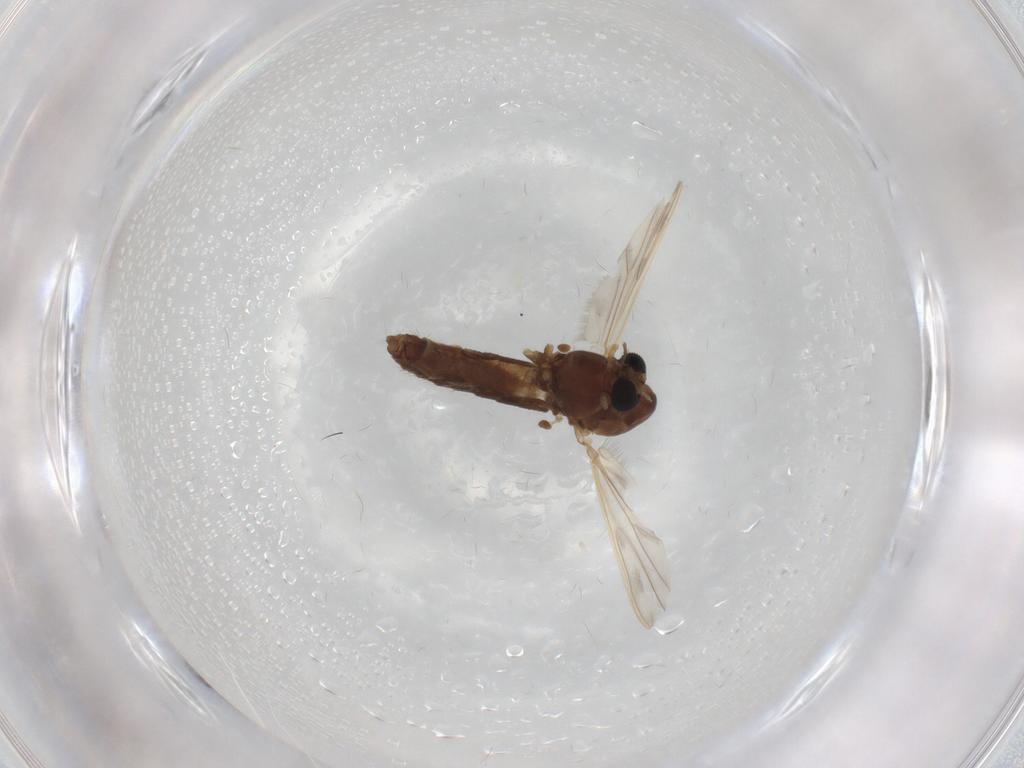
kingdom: Animalia
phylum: Arthropoda
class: Insecta
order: Diptera
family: Chironomidae
